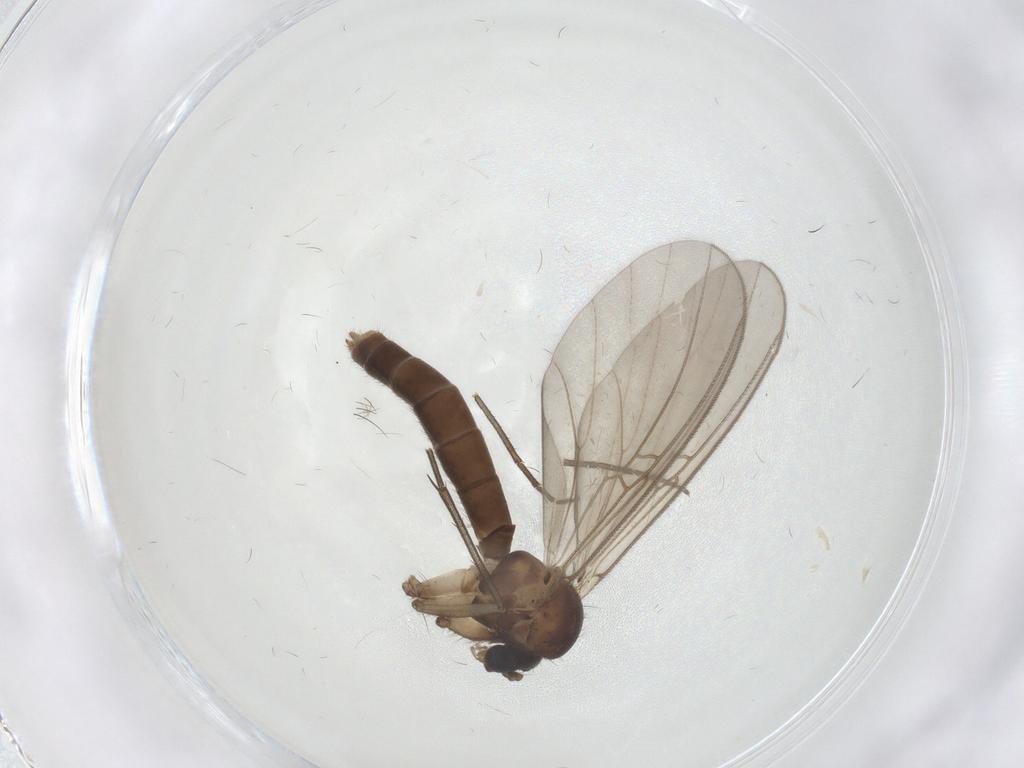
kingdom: Animalia
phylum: Arthropoda
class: Insecta
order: Diptera
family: Mycetophilidae
